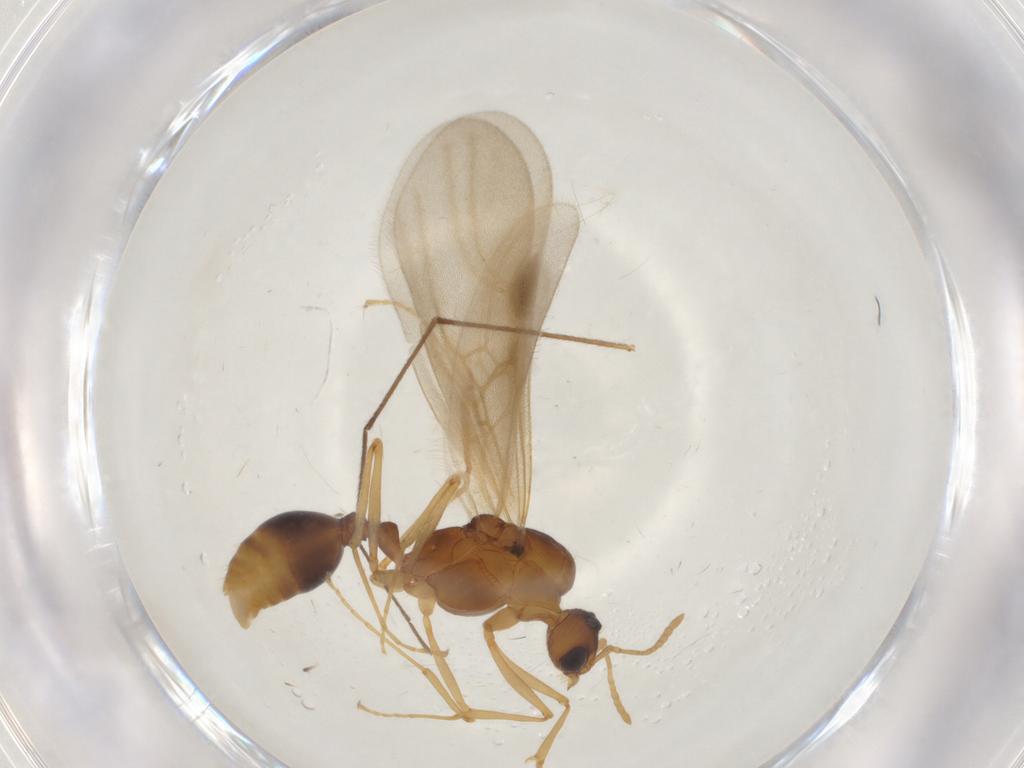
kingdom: Animalia
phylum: Arthropoda
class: Insecta
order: Hymenoptera
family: Formicidae
